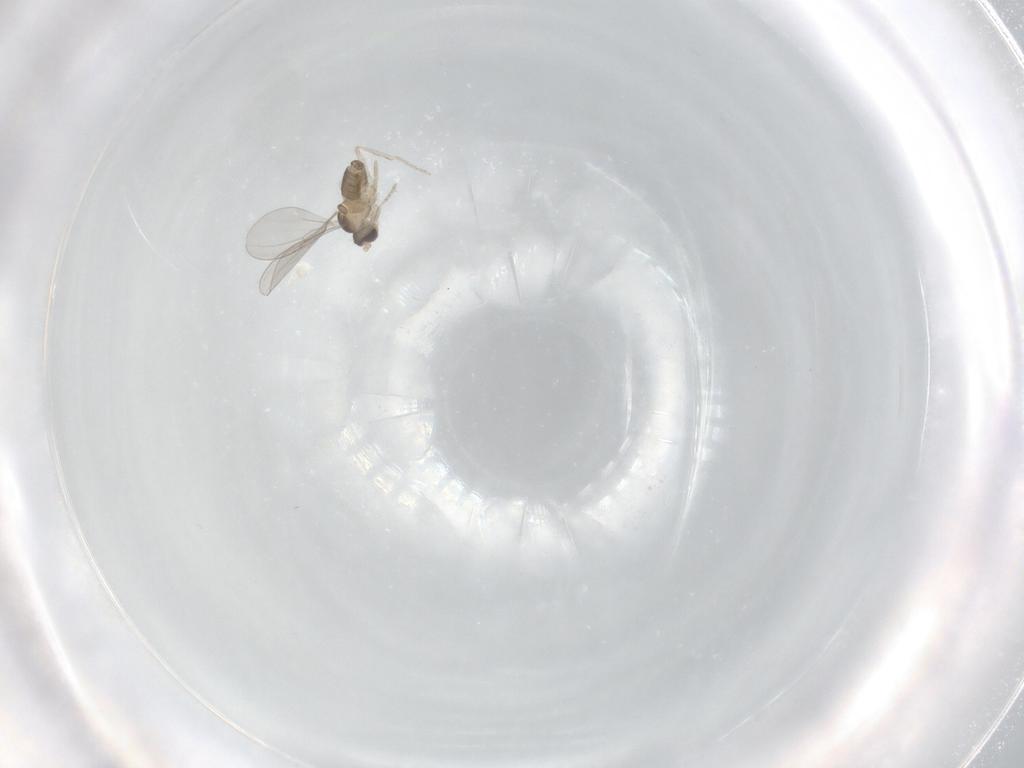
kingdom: Animalia
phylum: Arthropoda
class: Insecta
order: Diptera
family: Cecidomyiidae
